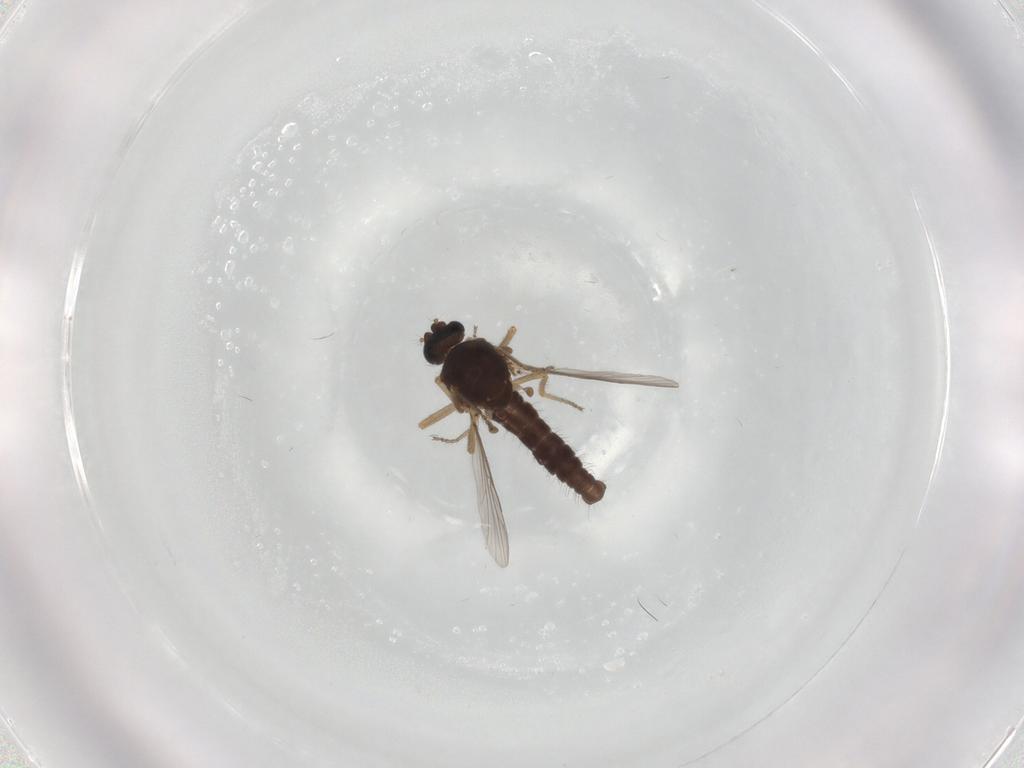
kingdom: Animalia
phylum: Arthropoda
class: Insecta
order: Diptera
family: Ceratopogonidae
